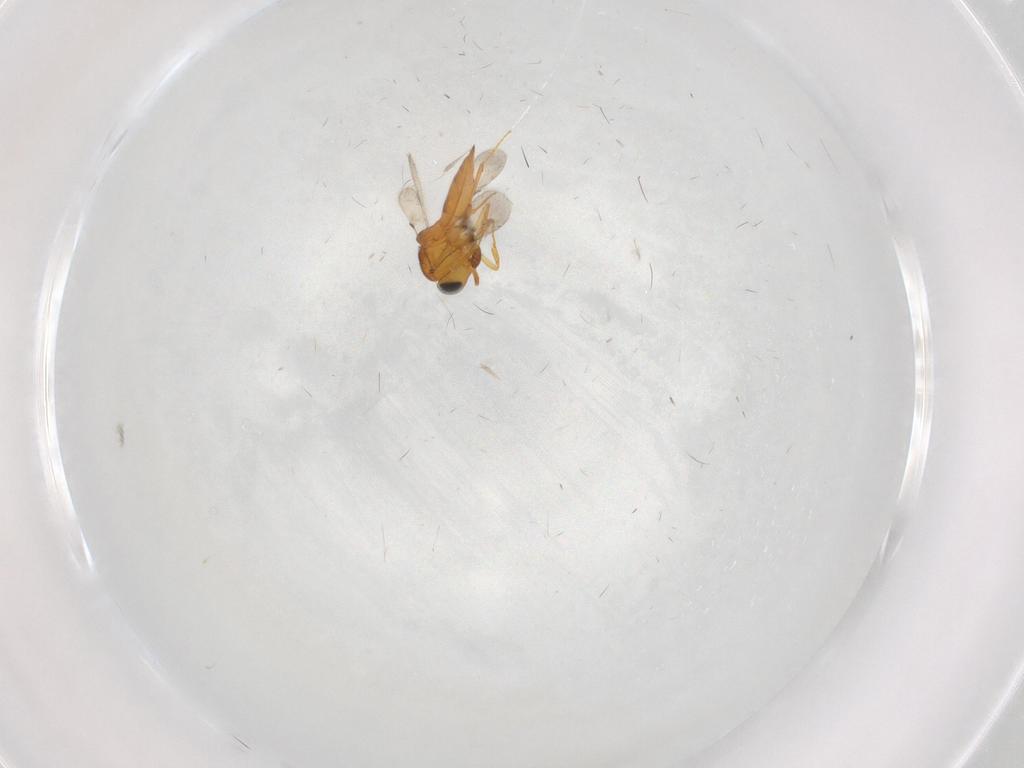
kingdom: Animalia
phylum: Arthropoda
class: Insecta
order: Hymenoptera
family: Scelionidae
